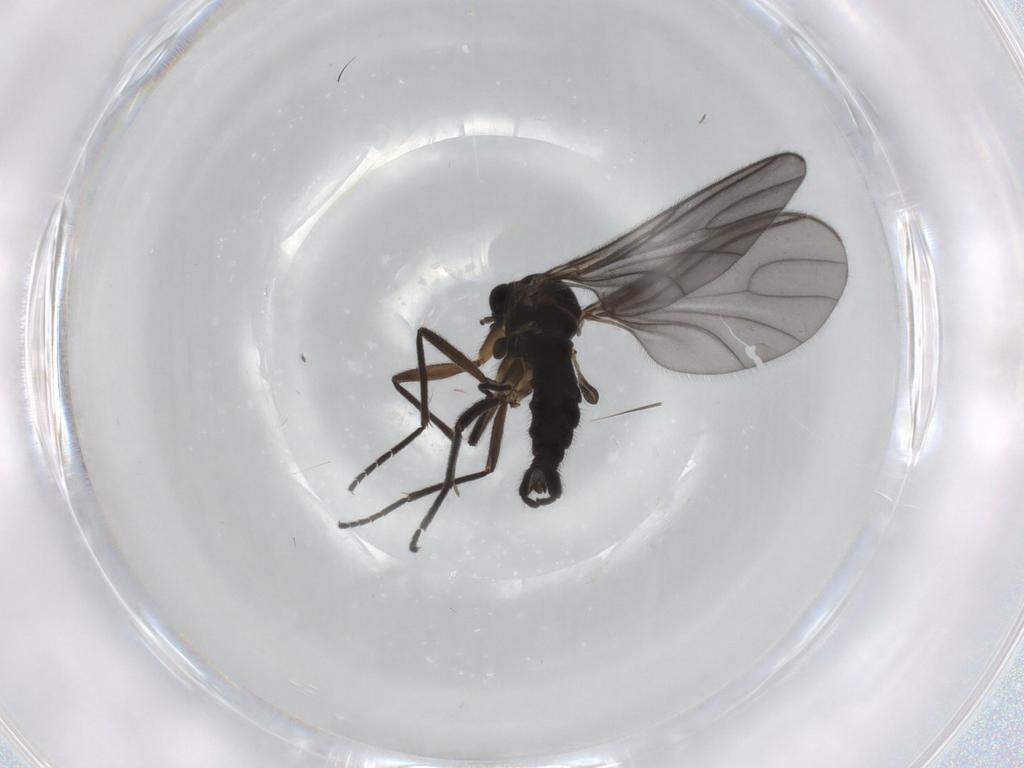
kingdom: Animalia
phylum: Arthropoda
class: Insecta
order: Diptera
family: Sciaridae
